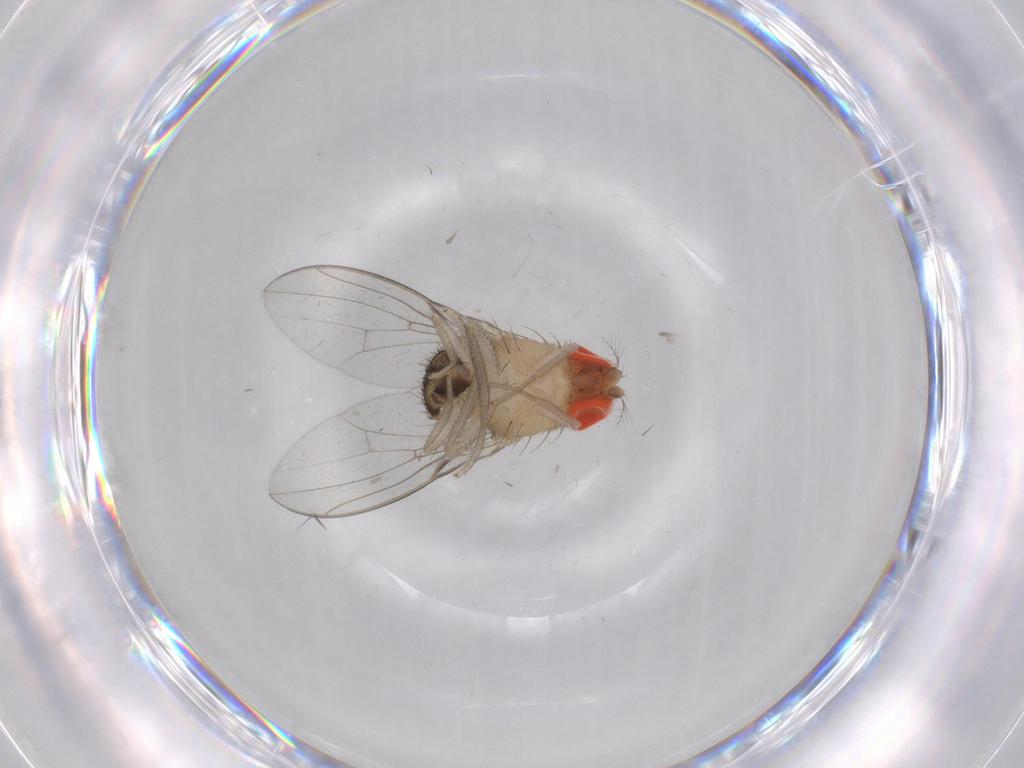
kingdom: Animalia
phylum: Arthropoda
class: Insecta
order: Diptera
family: Drosophilidae
